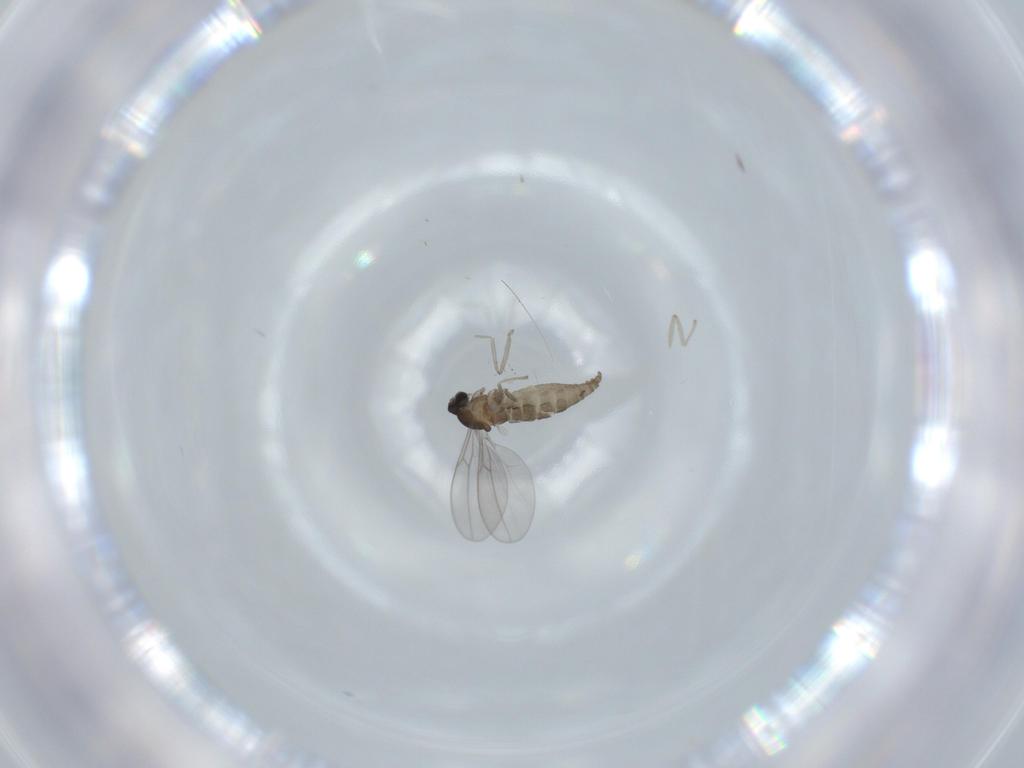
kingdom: Animalia
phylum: Arthropoda
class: Insecta
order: Diptera
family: Cecidomyiidae
